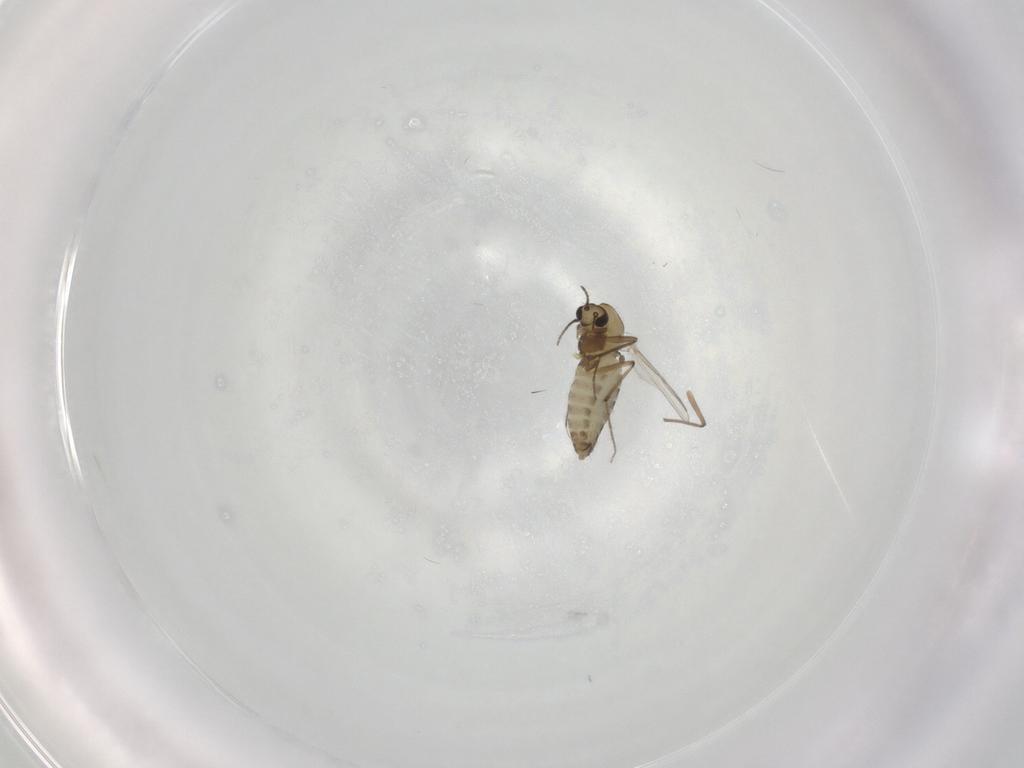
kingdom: Animalia
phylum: Arthropoda
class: Insecta
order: Diptera
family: Chironomidae
